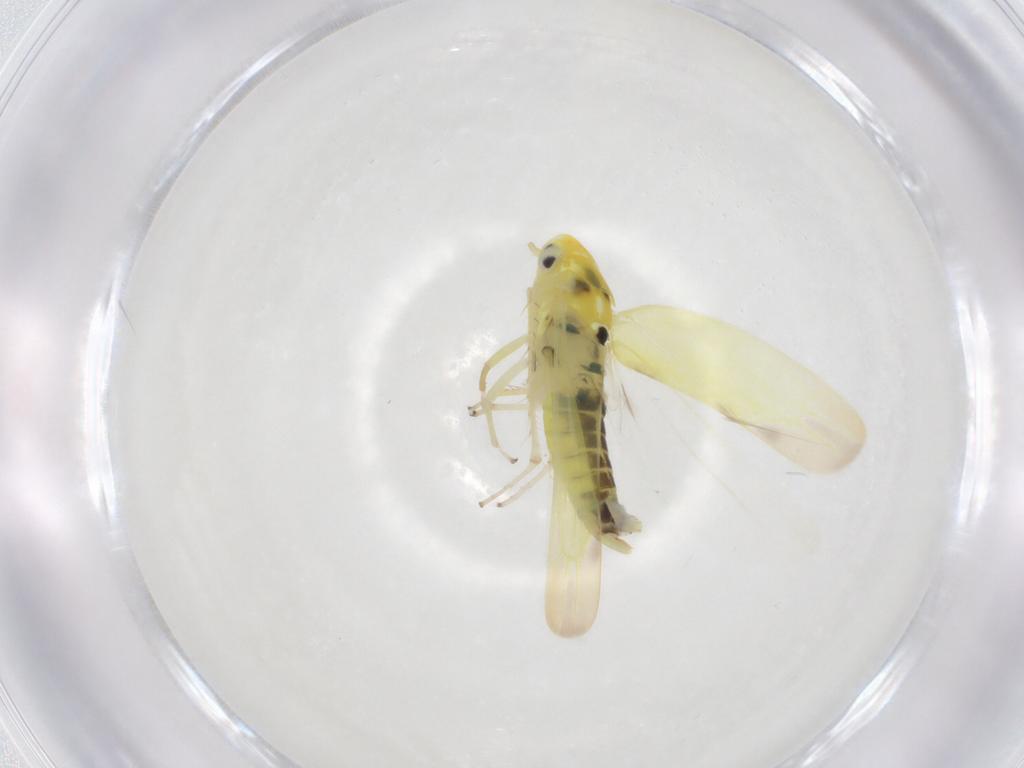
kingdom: Animalia
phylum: Arthropoda
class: Insecta
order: Hemiptera
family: Cicadellidae
